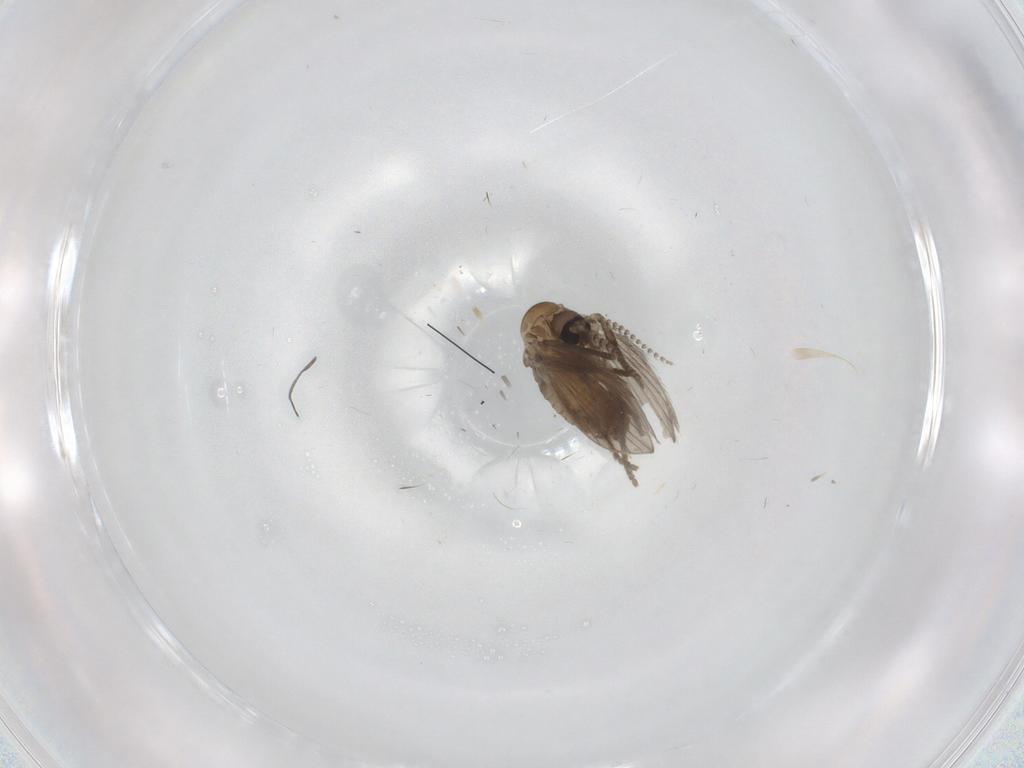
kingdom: Animalia
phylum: Arthropoda
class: Insecta
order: Diptera
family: Sciaridae
